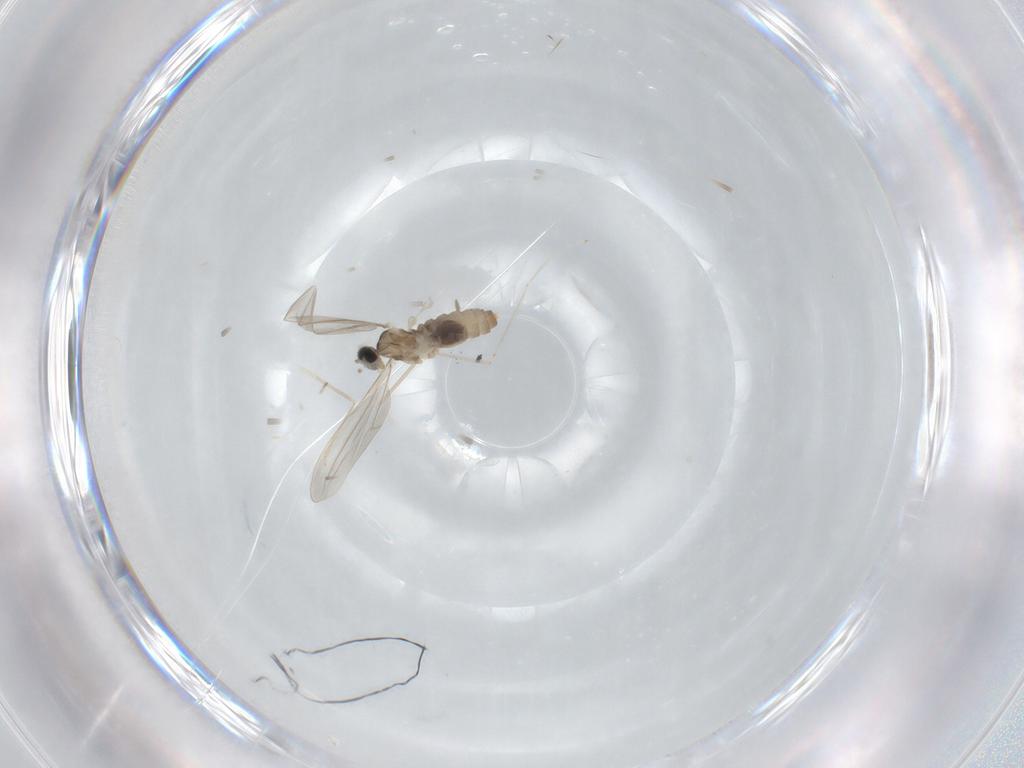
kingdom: Animalia
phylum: Arthropoda
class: Insecta
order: Diptera
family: Cecidomyiidae
